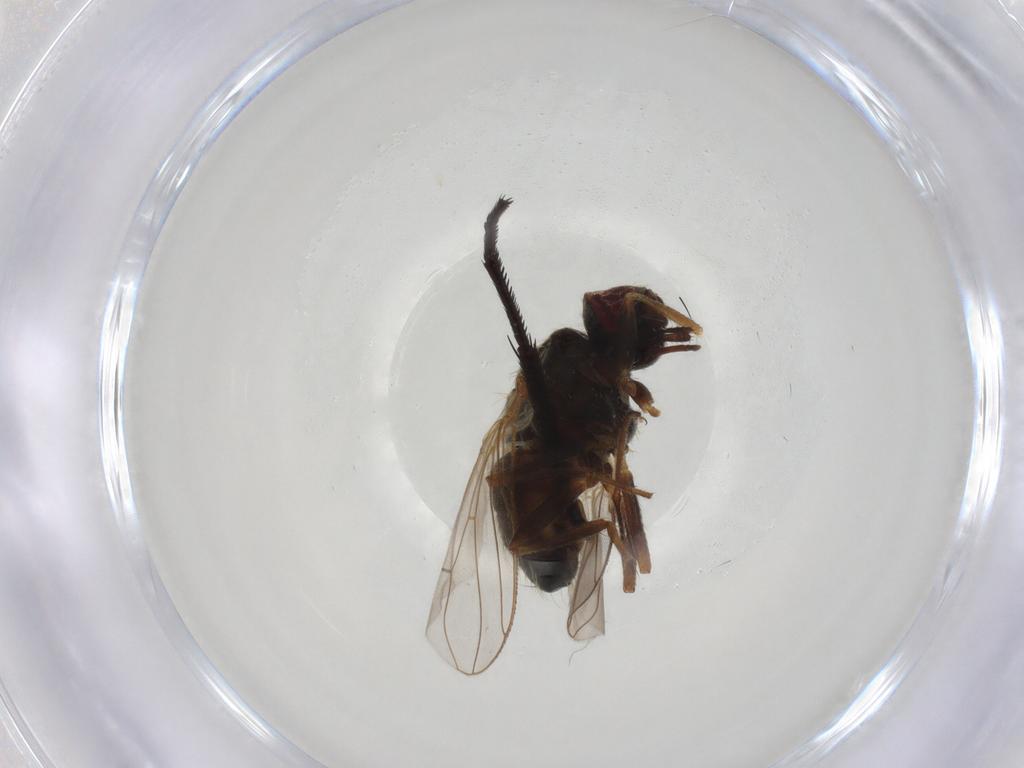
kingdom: Animalia
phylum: Arthropoda
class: Insecta
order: Diptera
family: Muscidae
